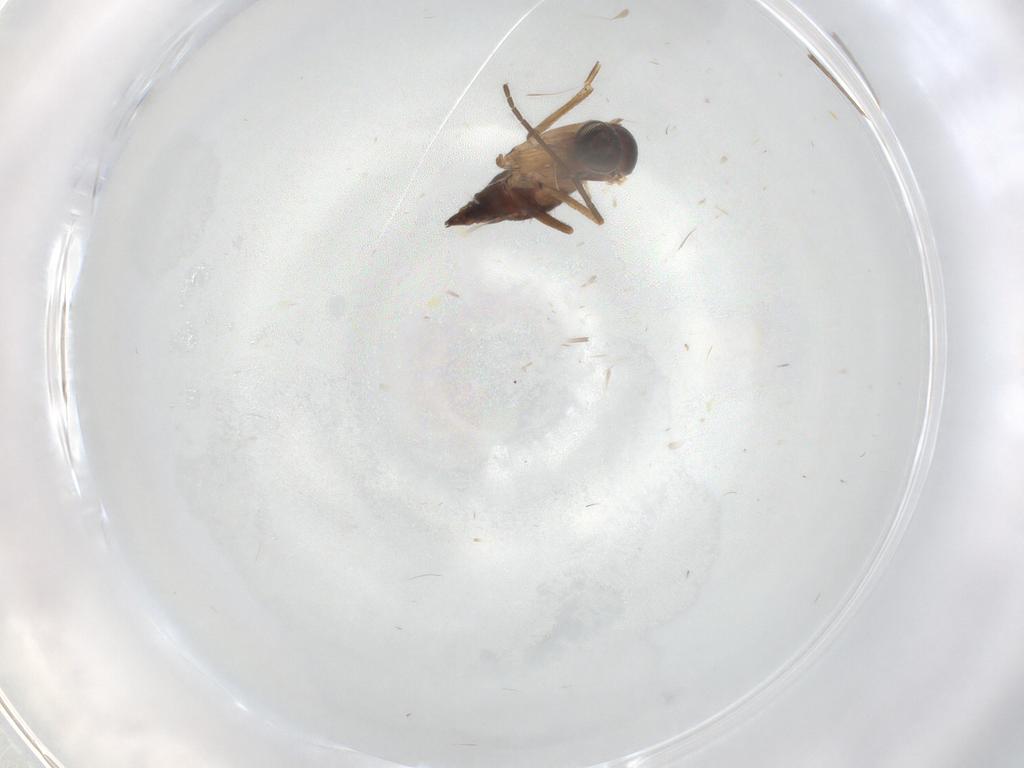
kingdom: Animalia
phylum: Arthropoda
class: Insecta
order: Diptera
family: Sciaridae
